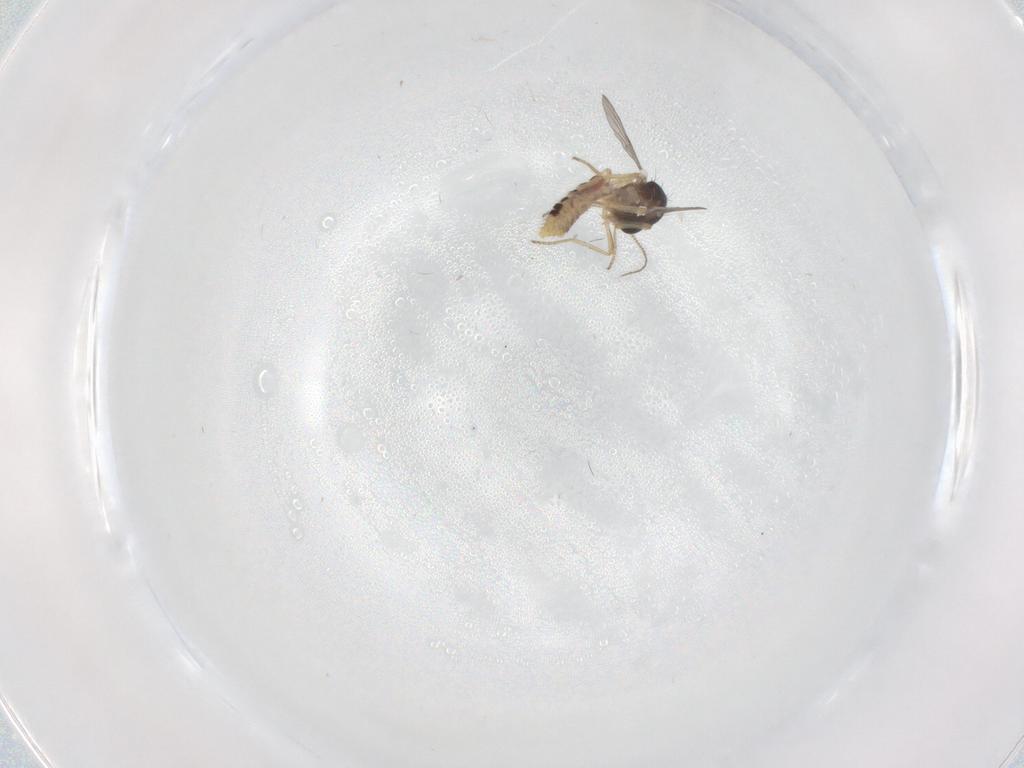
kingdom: Animalia
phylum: Arthropoda
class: Insecta
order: Diptera
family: Ceratopogonidae
